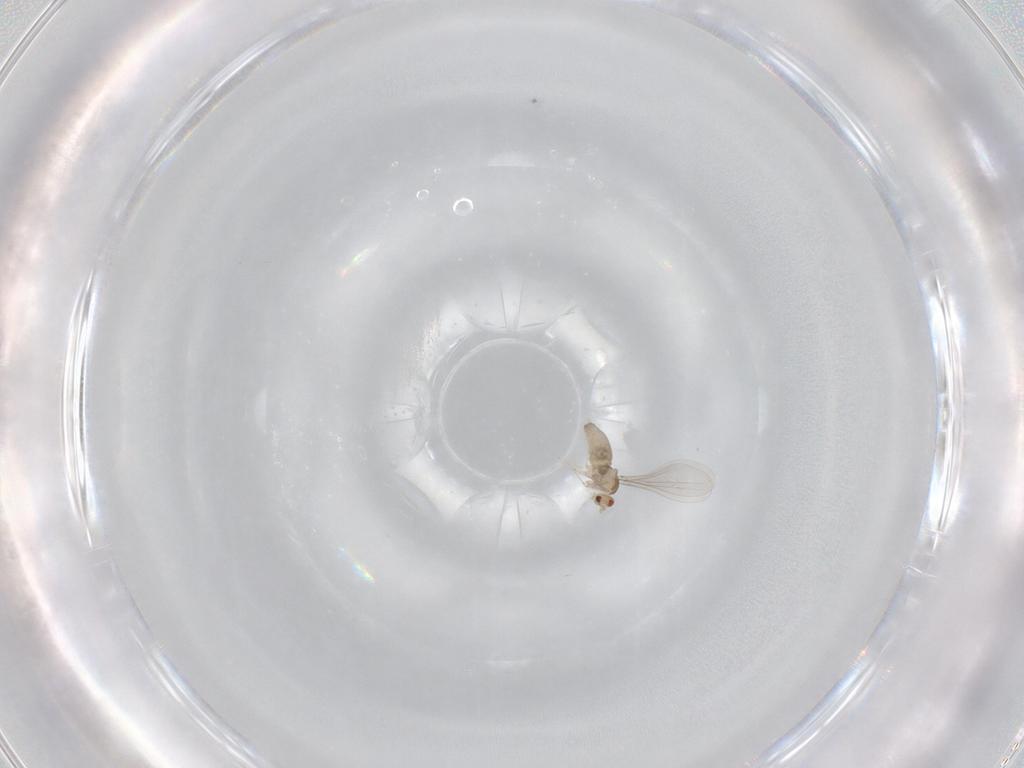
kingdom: Animalia
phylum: Arthropoda
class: Insecta
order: Diptera
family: Cecidomyiidae
